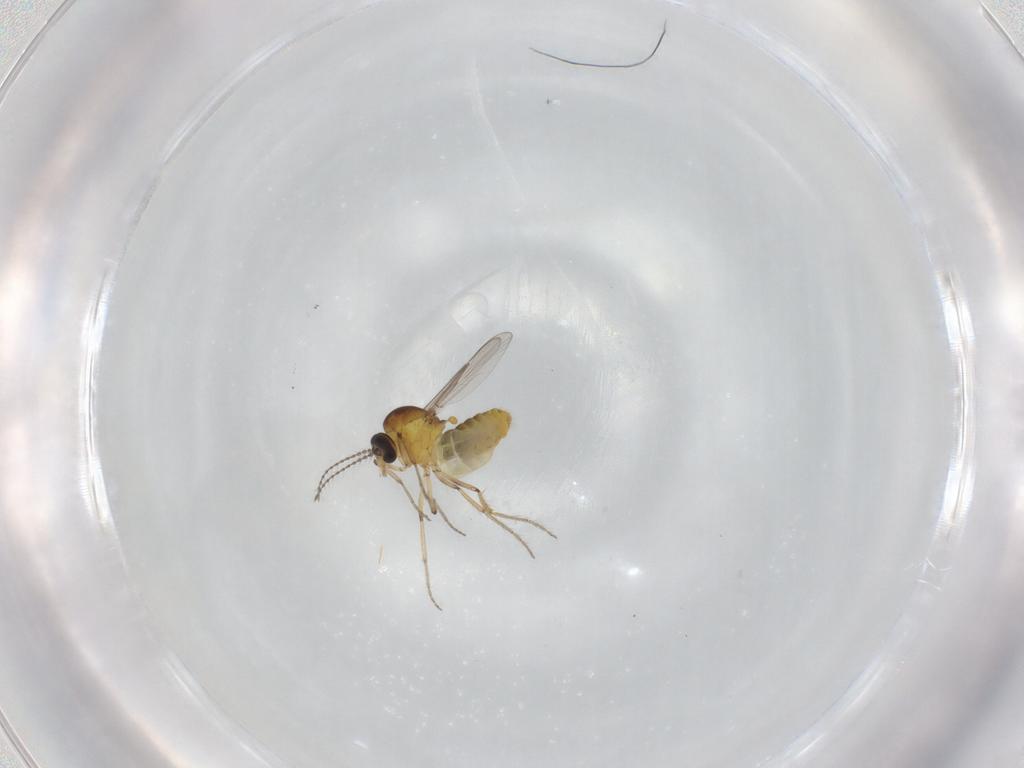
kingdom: Animalia
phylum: Arthropoda
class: Insecta
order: Diptera
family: Ceratopogonidae
